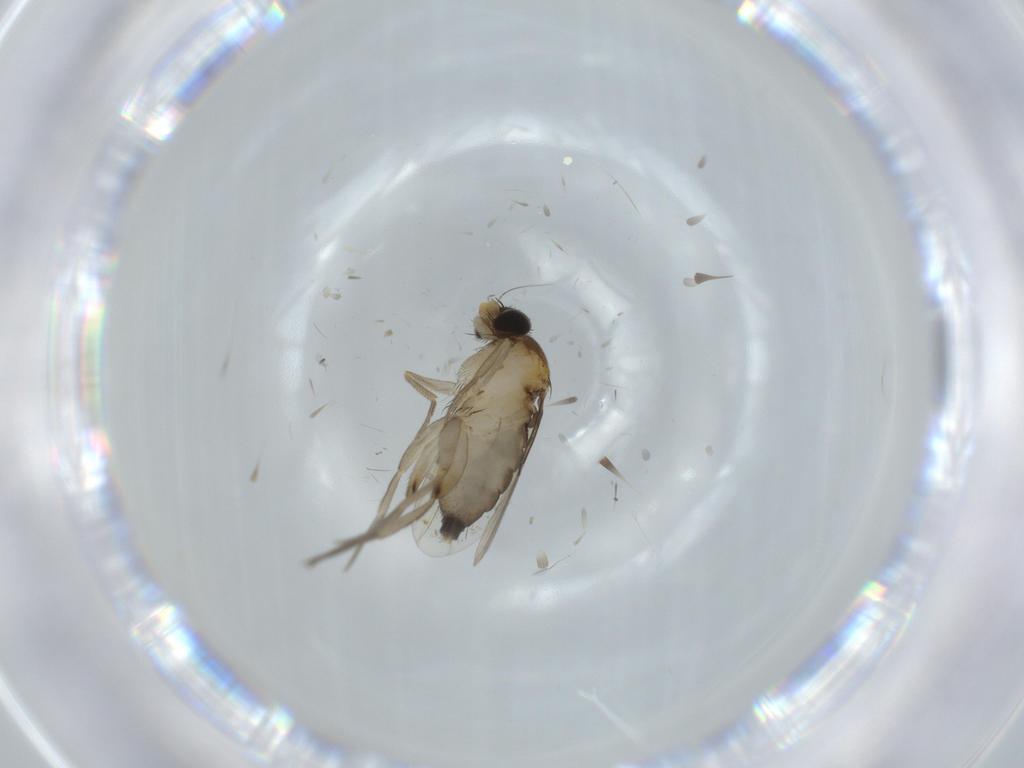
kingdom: Animalia
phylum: Arthropoda
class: Insecta
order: Diptera
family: Phoridae
